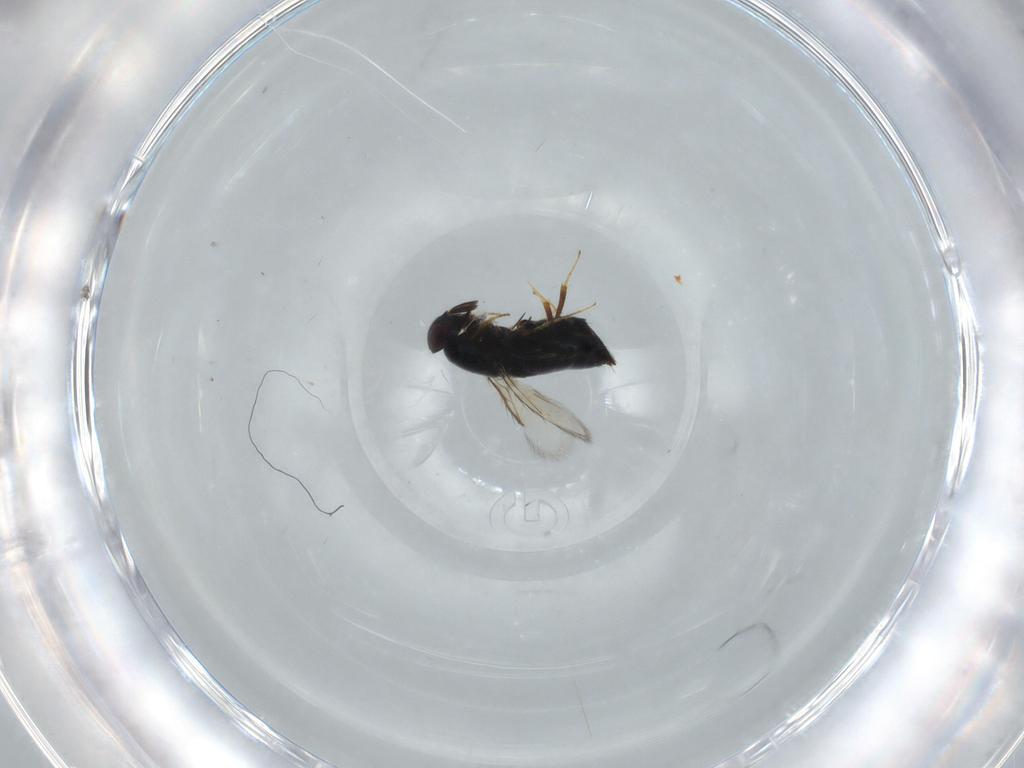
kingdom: Animalia
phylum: Arthropoda
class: Insecta
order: Hymenoptera
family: Signiphoridae
